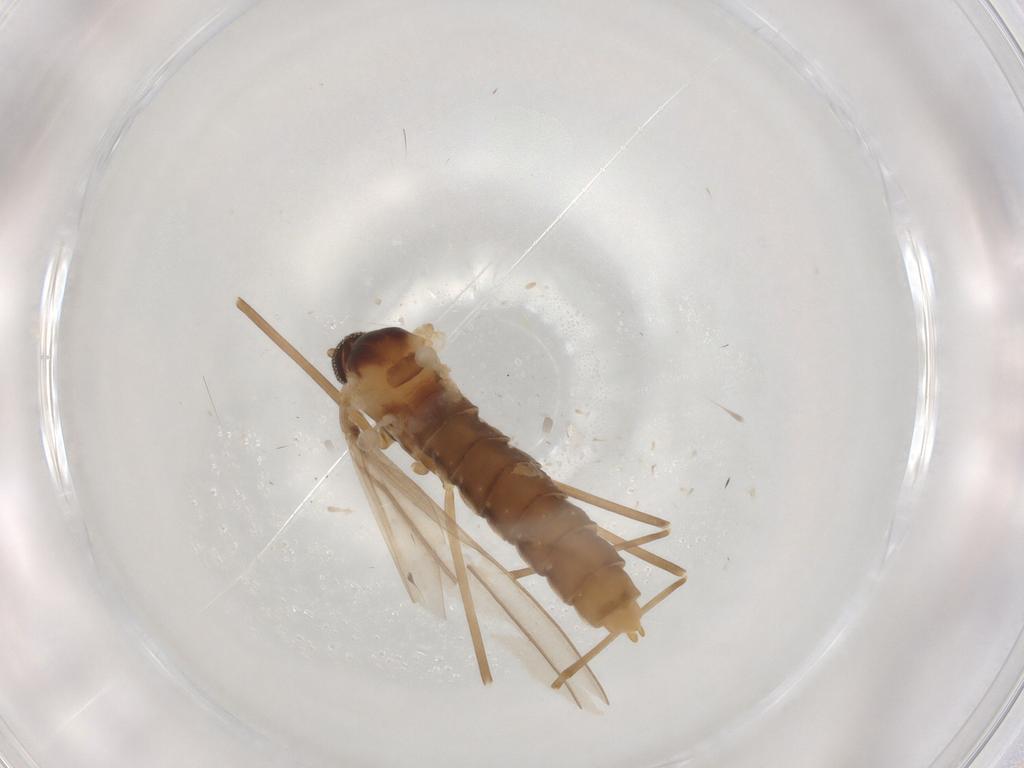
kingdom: Animalia
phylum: Arthropoda
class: Insecta
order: Diptera
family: Cecidomyiidae
